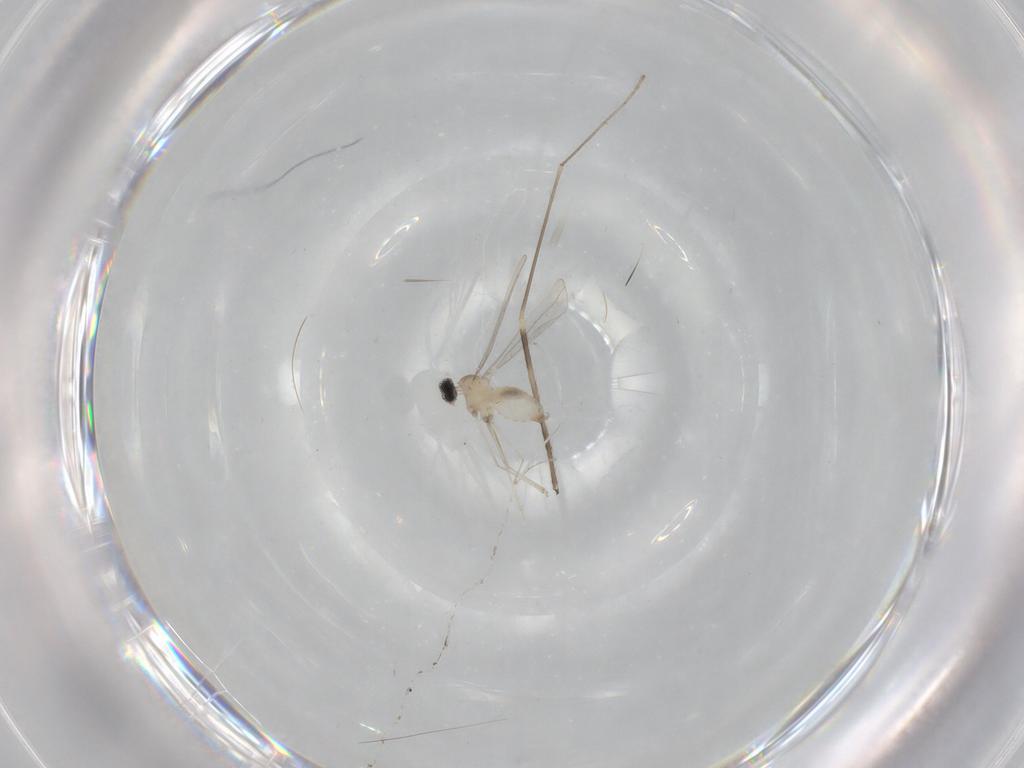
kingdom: Animalia
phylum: Arthropoda
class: Insecta
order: Diptera
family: Cecidomyiidae
